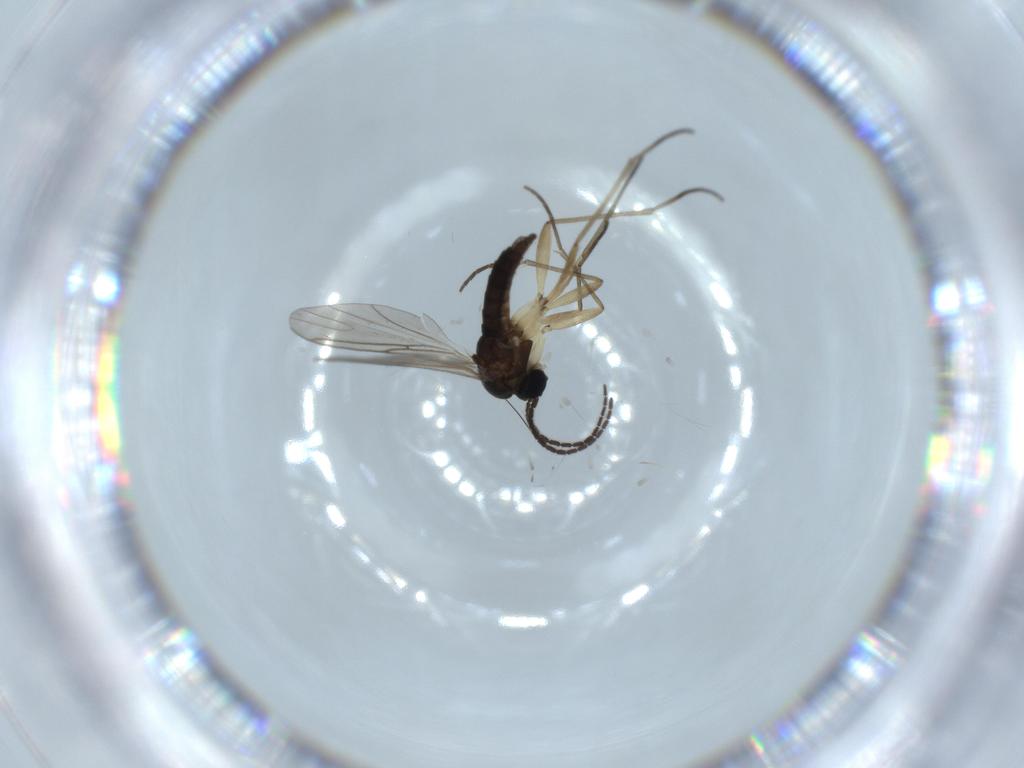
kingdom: Animalia
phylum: Arthropoda
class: Insecta
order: Diptera
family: Sciaridae
